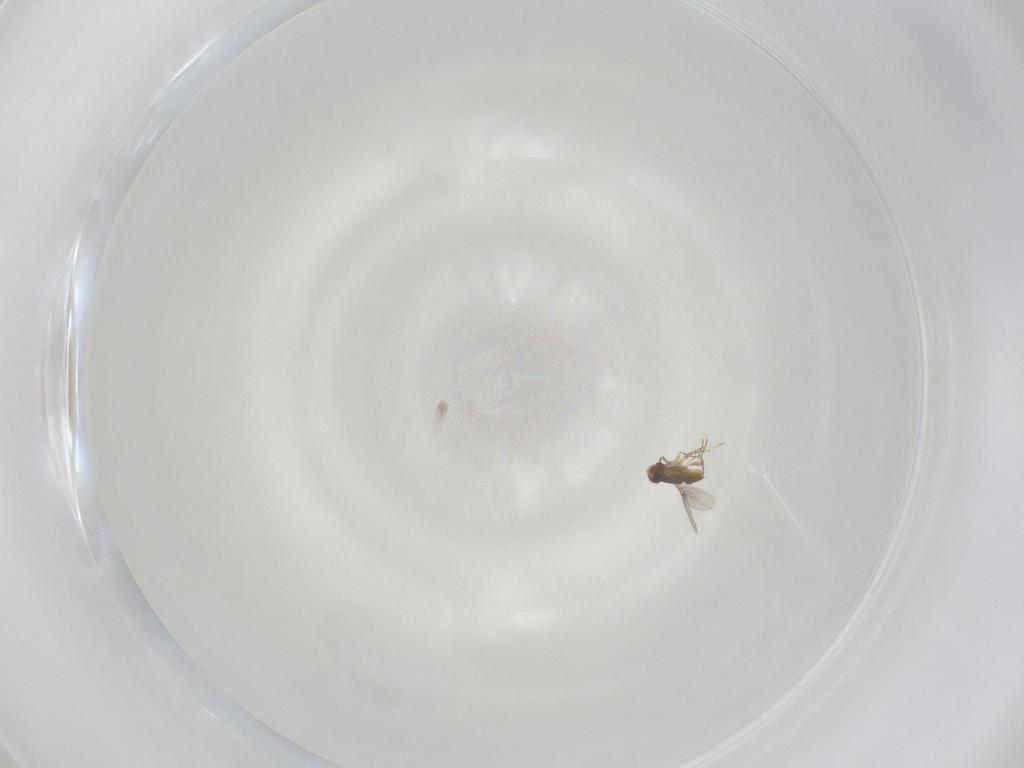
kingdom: Animalia
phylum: Arthropoda
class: Insecta
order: Hymenoptera
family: Trichogrammatidae
